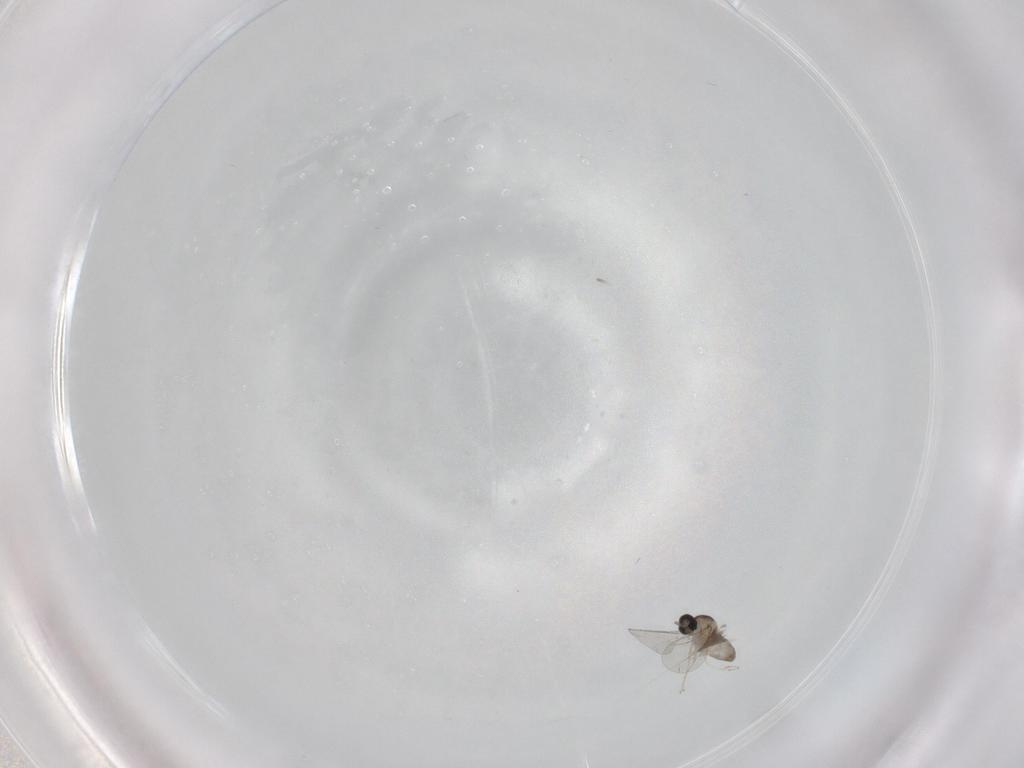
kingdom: Animalia
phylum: Arthropoda
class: Insecta
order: Diptera
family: Cecidomyiidae
